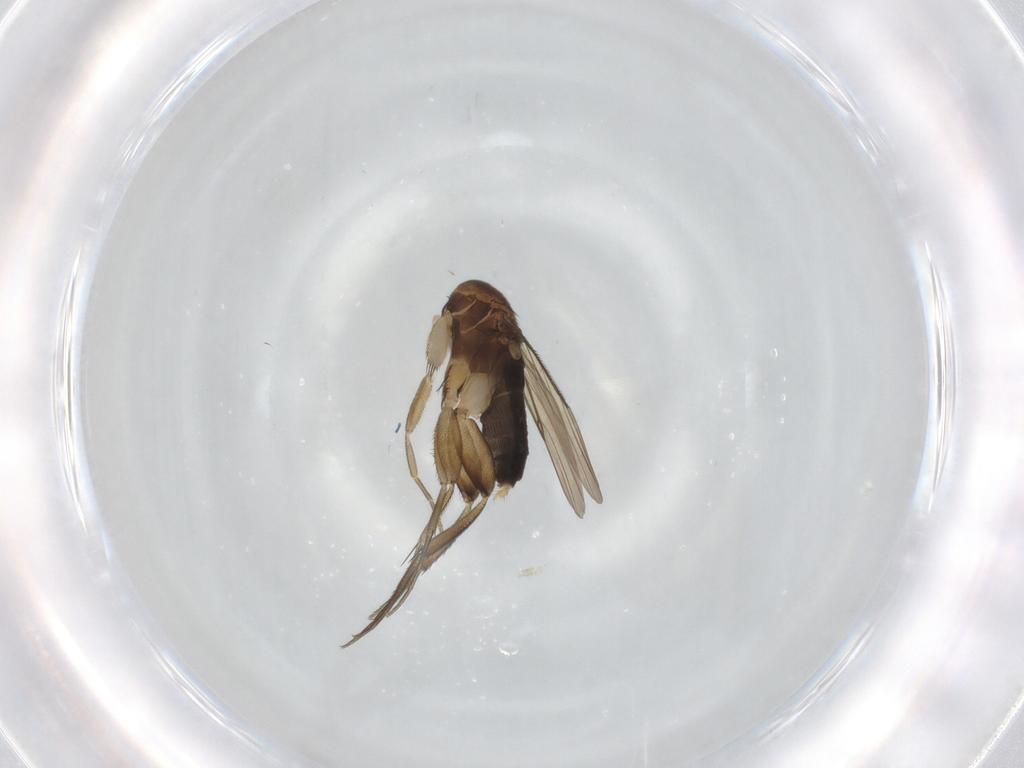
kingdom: Animalia
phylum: Arthropoda
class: Insecta
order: Diptera
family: Phoridae
